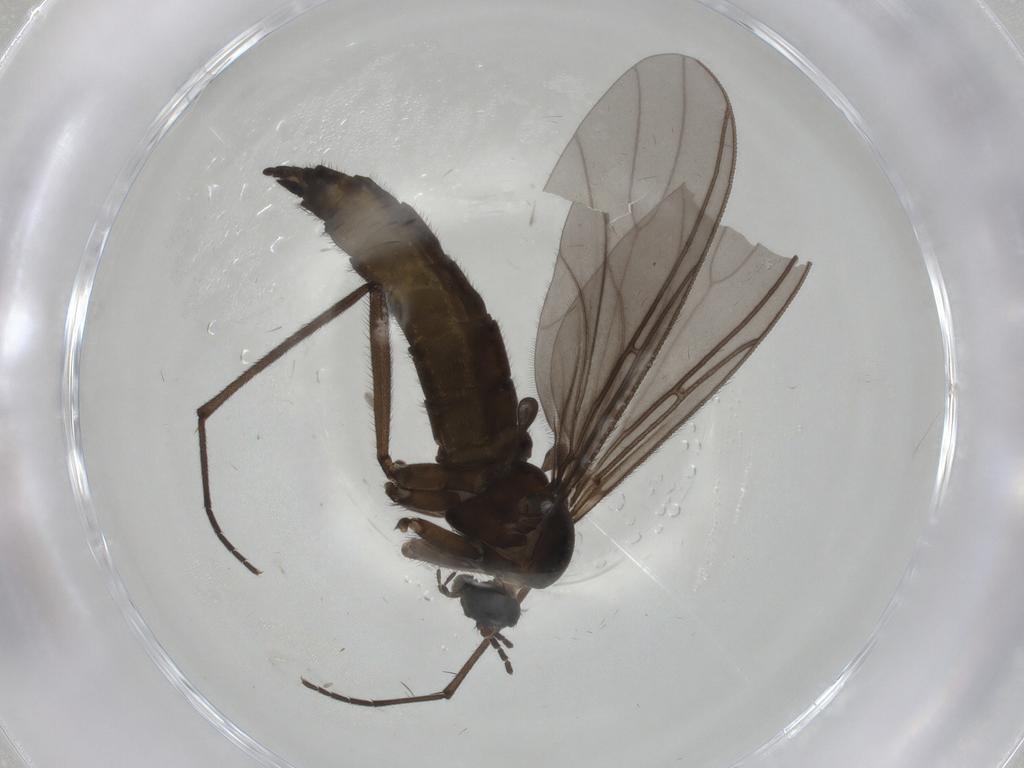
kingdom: Animalia
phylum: Arthropoda
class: Insecta
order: Diptera
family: Sciaridae
